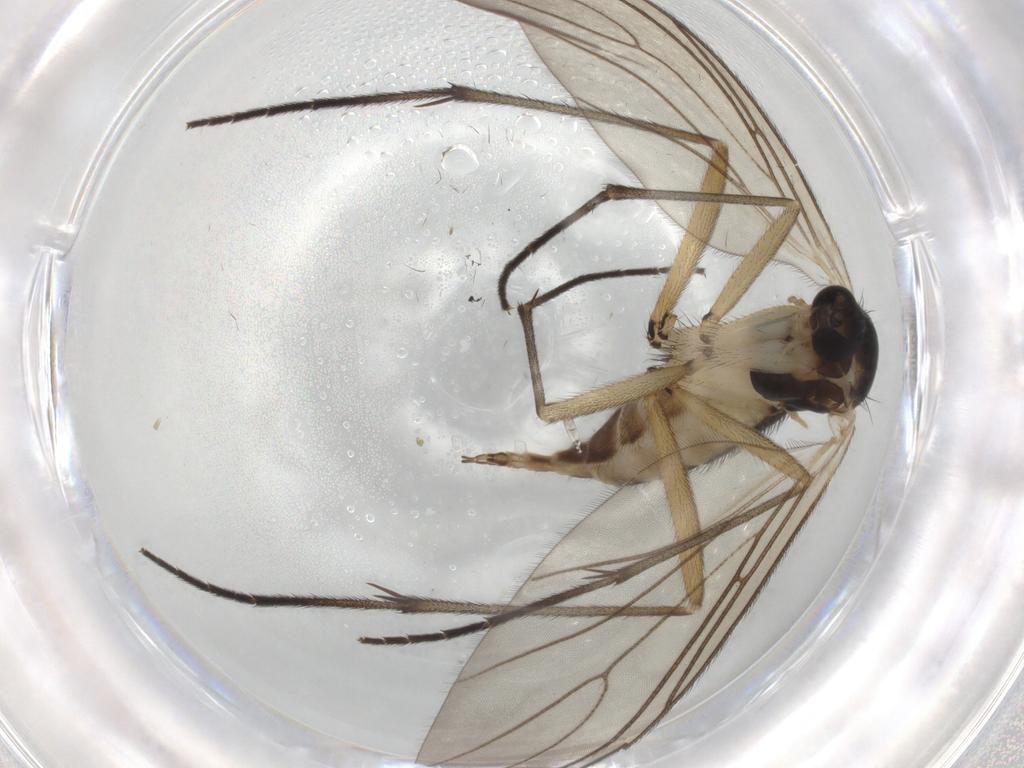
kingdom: Animalia
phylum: Arthropoda
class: Insecta
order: Diptera
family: Sciaridae
